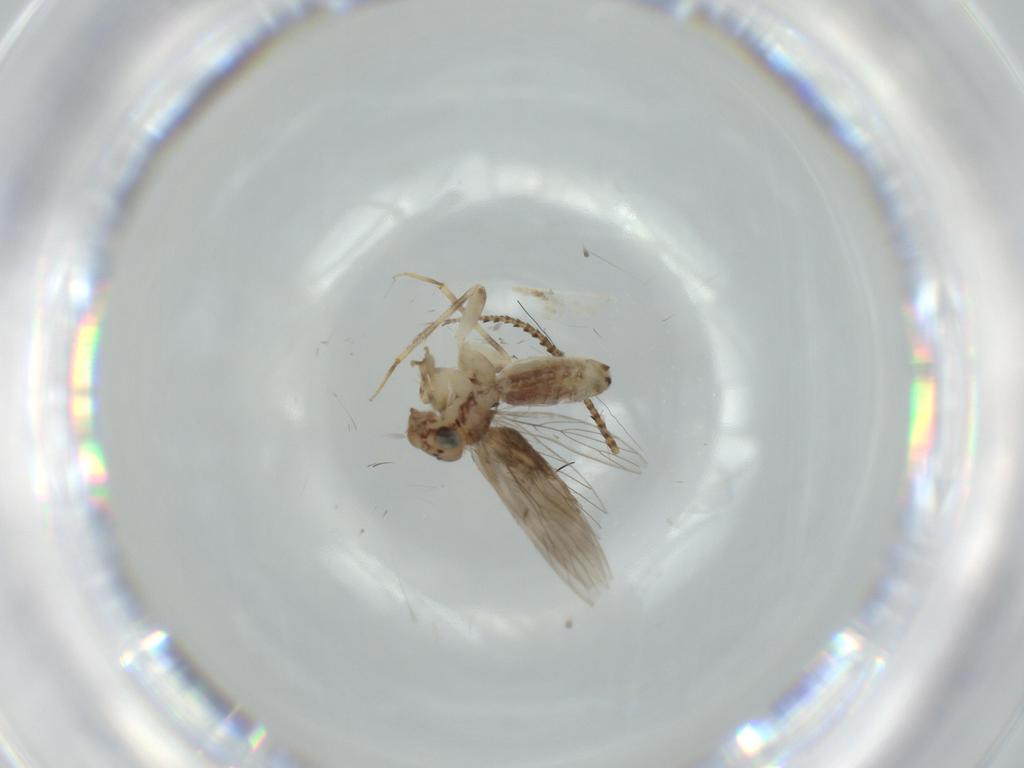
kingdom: Animalia
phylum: Arthropoda
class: Insecta
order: Psocodea
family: Lepidopsocidae
